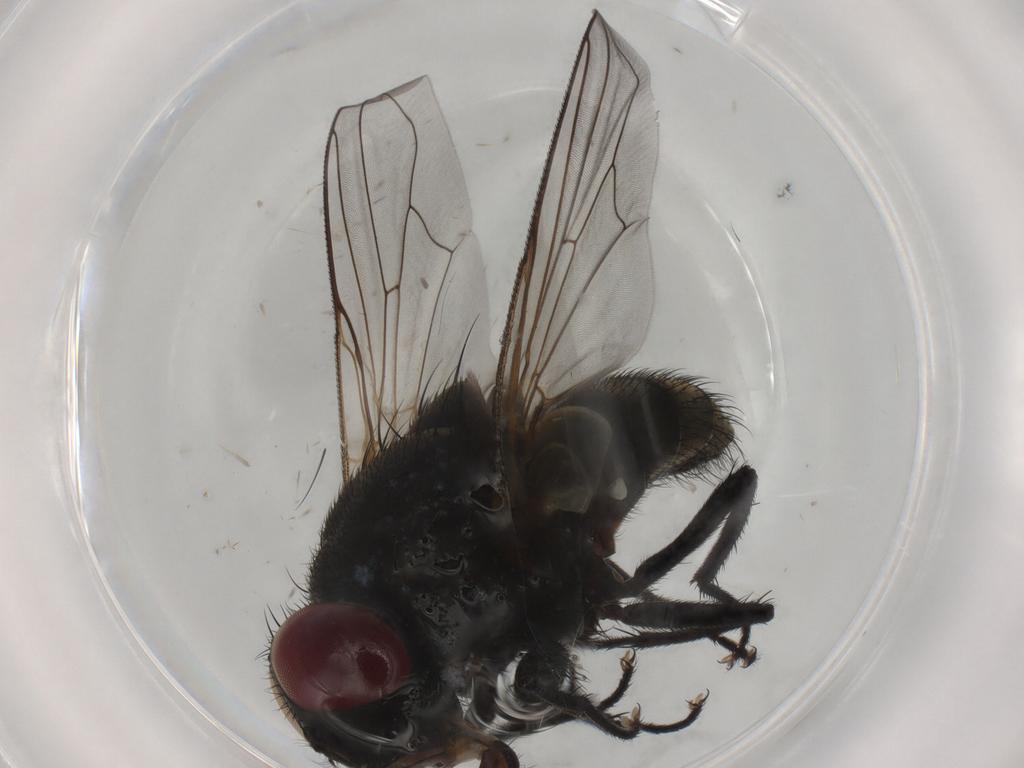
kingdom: Animalia
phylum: Arthropoda
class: Insecta
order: Diptera
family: Muscidae
